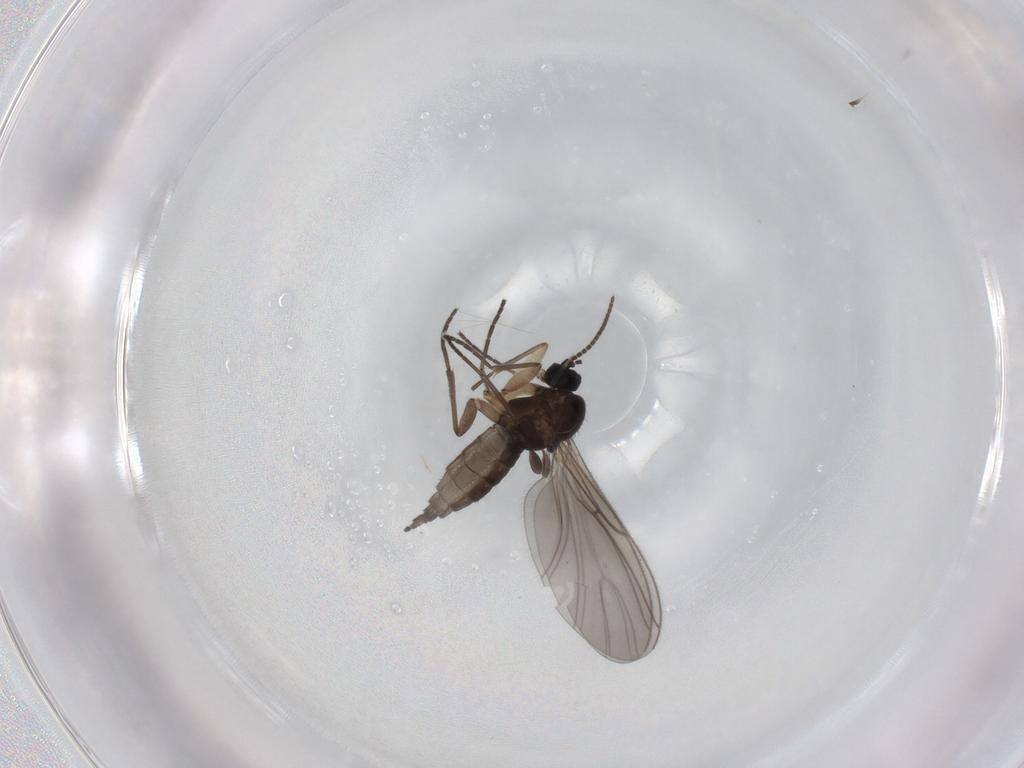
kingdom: Animalia
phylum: Arthropoda
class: Insecta
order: Diptera
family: Sciaridae
